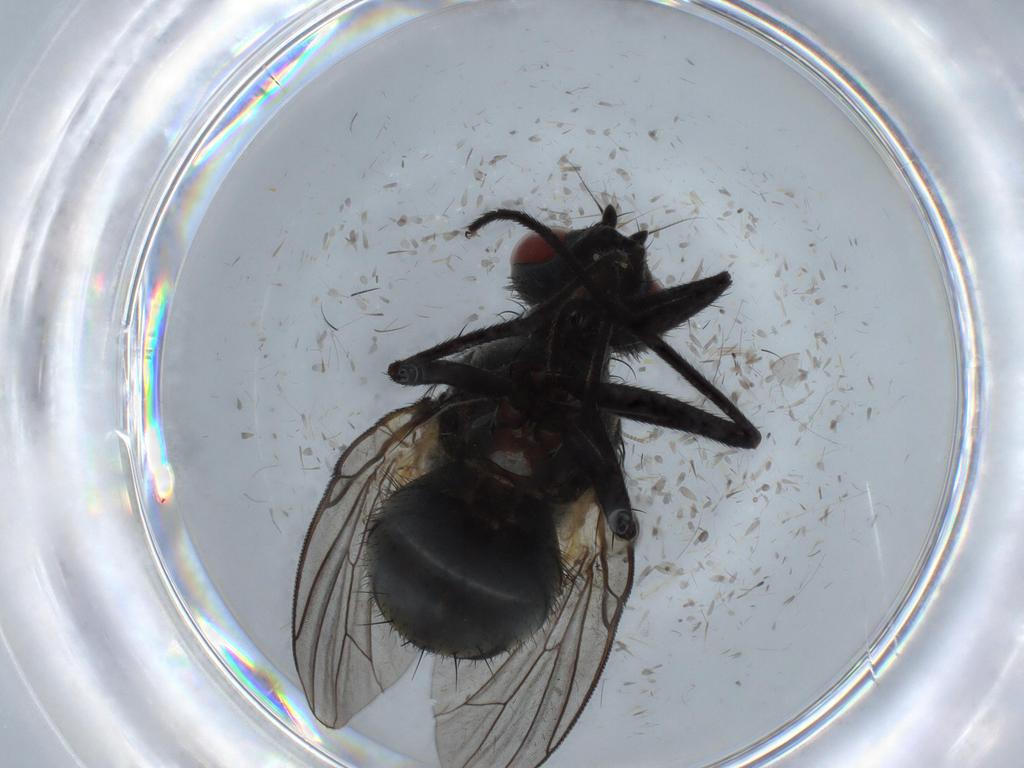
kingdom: Animalia
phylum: Arthropoda
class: Insecta
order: Diptera
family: Muscidae
